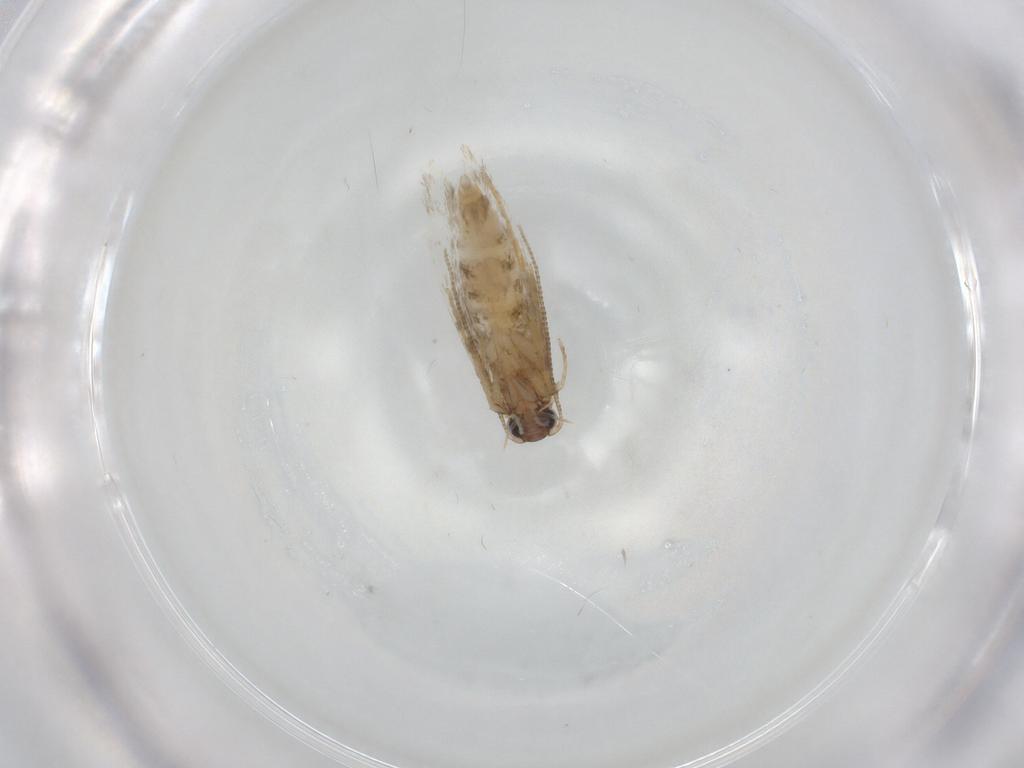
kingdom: Animalia
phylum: Arthropoda
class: Insecta
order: Lepidoptera
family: Tineidae
